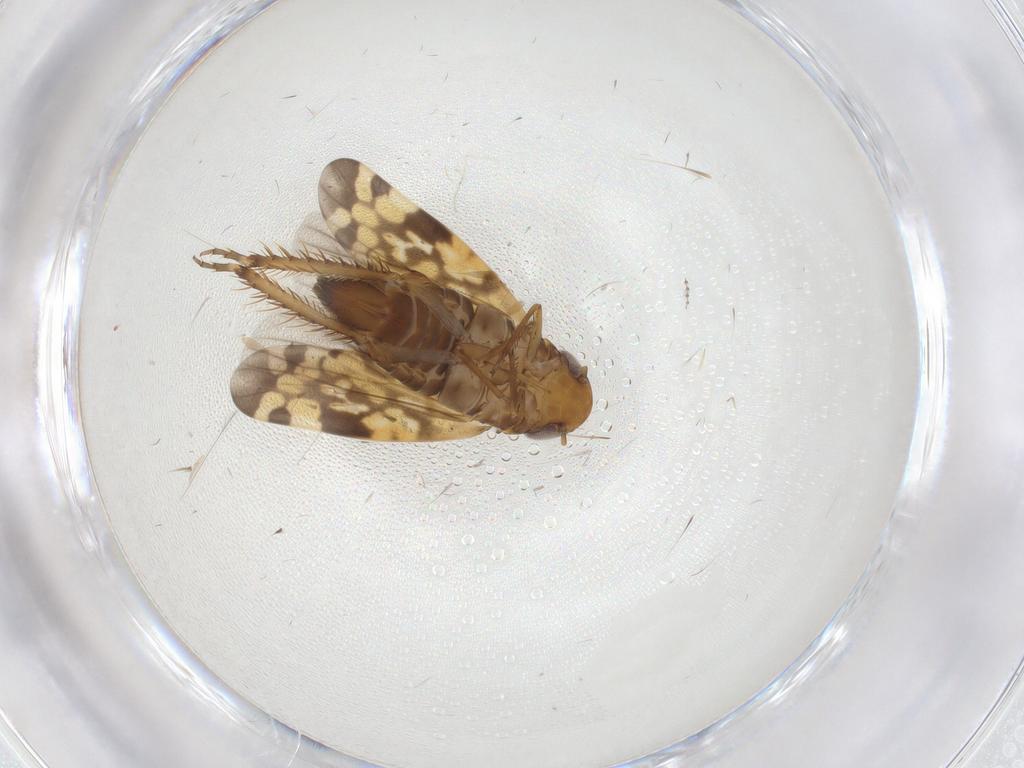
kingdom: Animalia
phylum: Arthropoda
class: Insecta
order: Hemiptera
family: Cicadellidae
